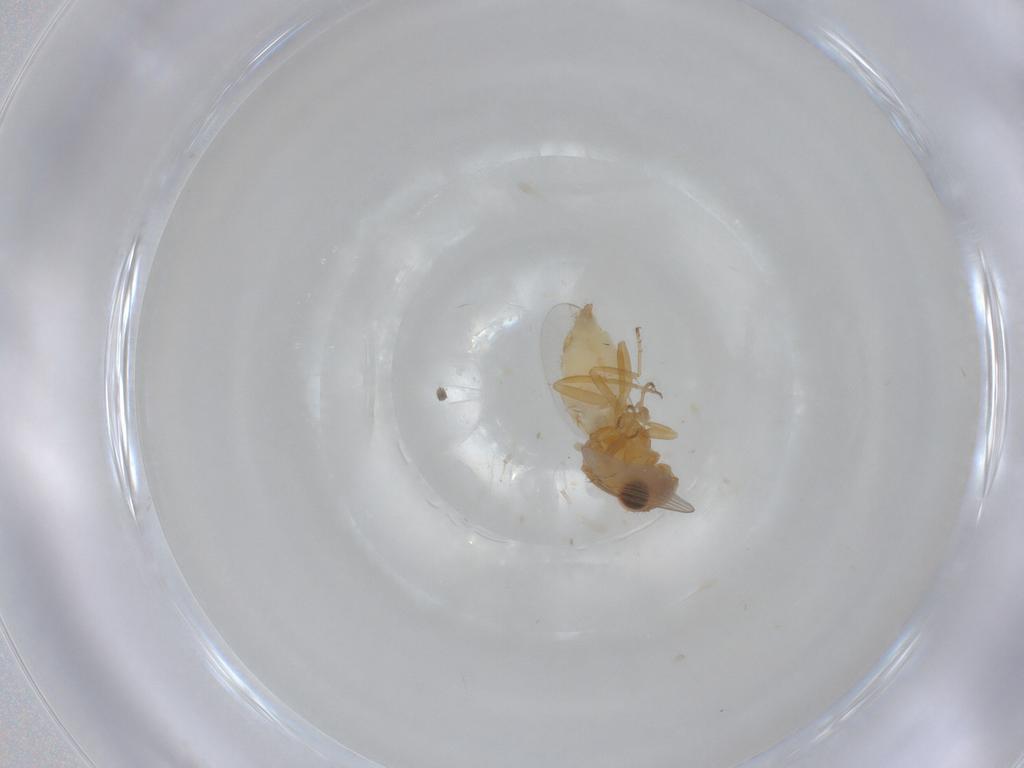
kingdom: Animalia
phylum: Arthropoda
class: Insecta
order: Diptera
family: Chloropidae
